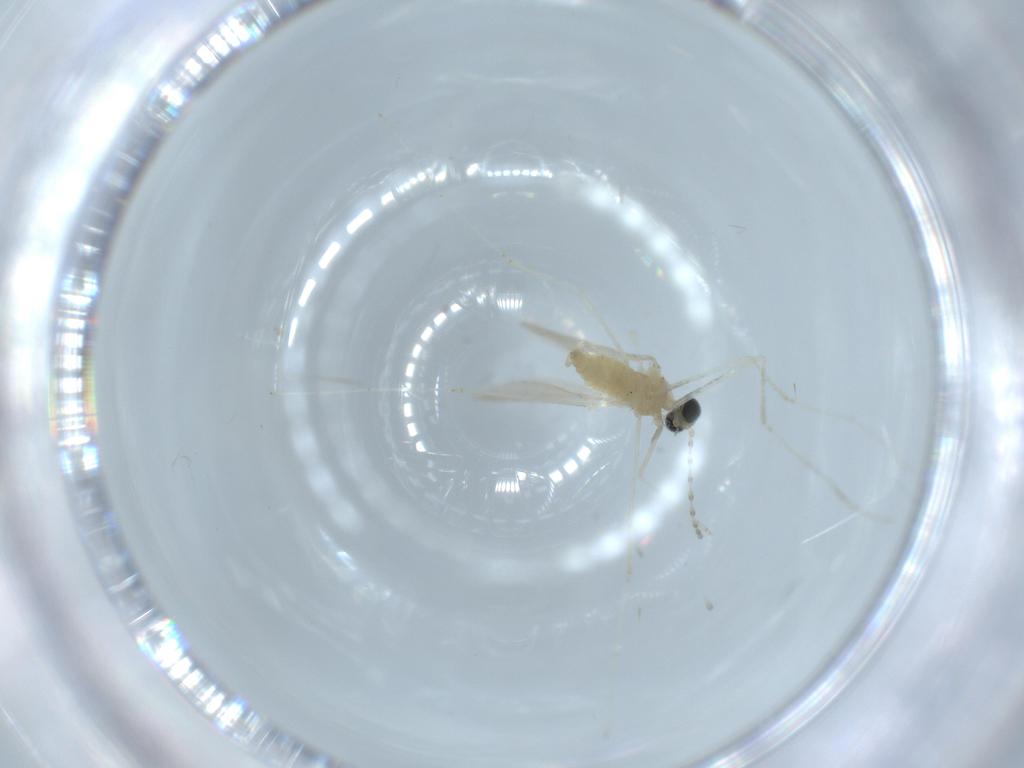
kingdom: Animalia
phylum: Arthropoda
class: Insecta
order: Diptera
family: Cecidomyiidae
